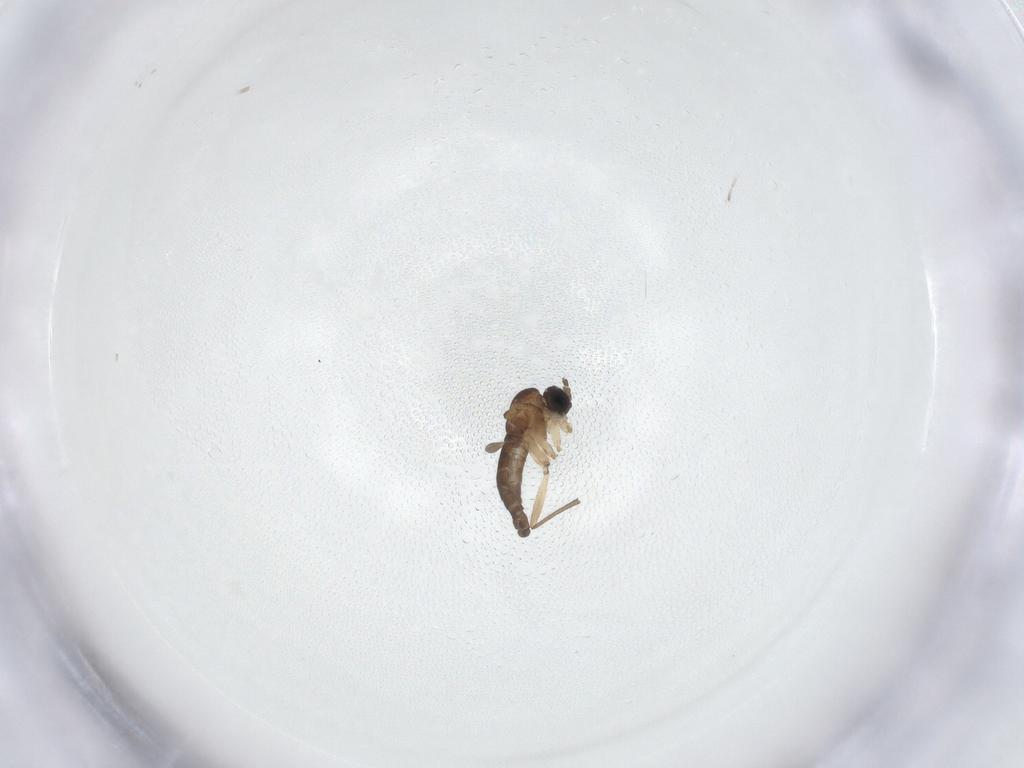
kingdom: Animalia
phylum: Arthropoda
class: Insecta
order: Diptera
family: Sciaridae
